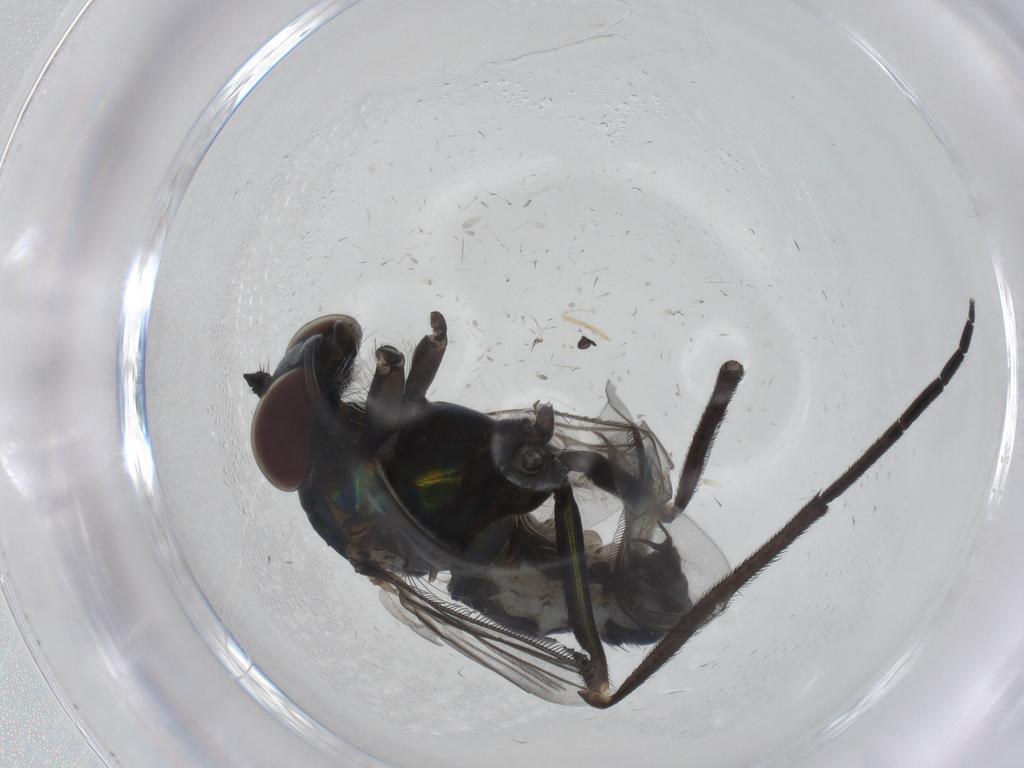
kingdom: Animalia
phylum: Arthropoda
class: Insecta
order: Diptera
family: Dolichopodidae
